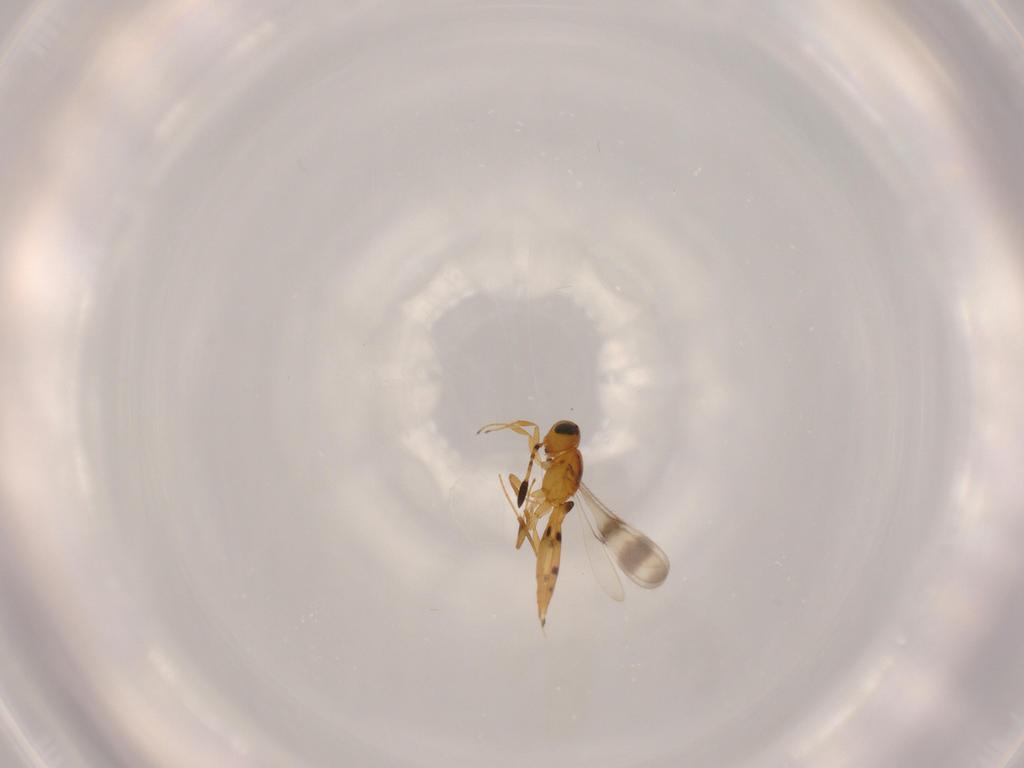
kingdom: Animalia
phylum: Arthropoda
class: Insecta
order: Hymenoptera
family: Scelionidae
